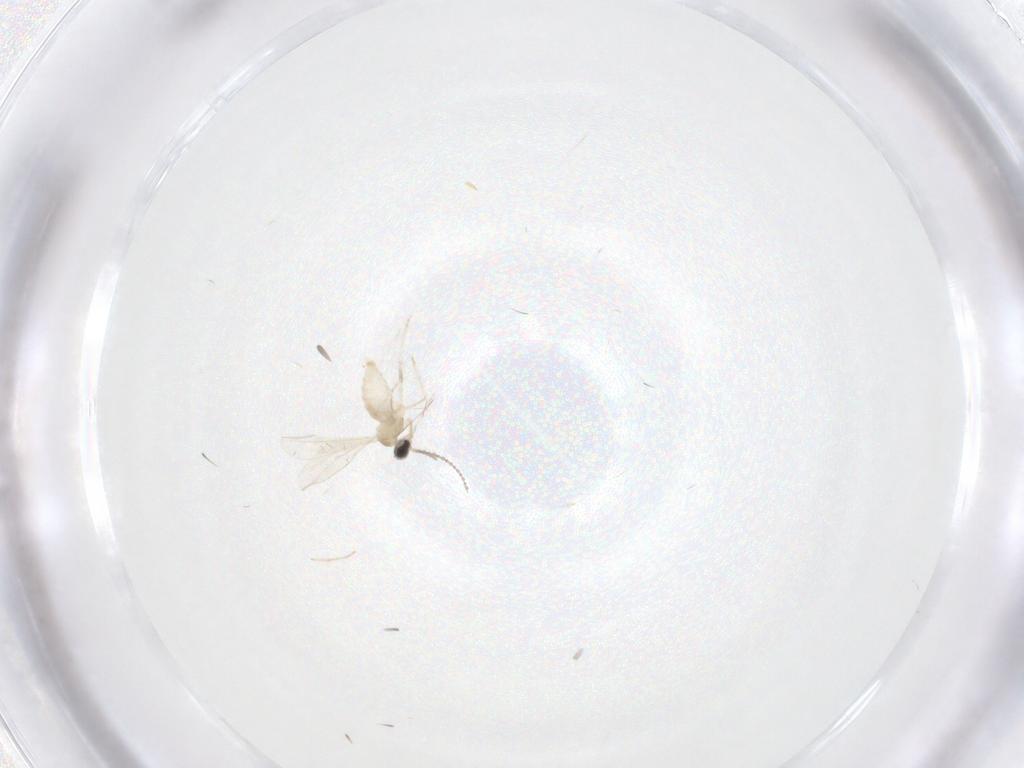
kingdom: Animalia
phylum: Arthropoda
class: Insecta
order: Diptera
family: Cecidomyiidae
